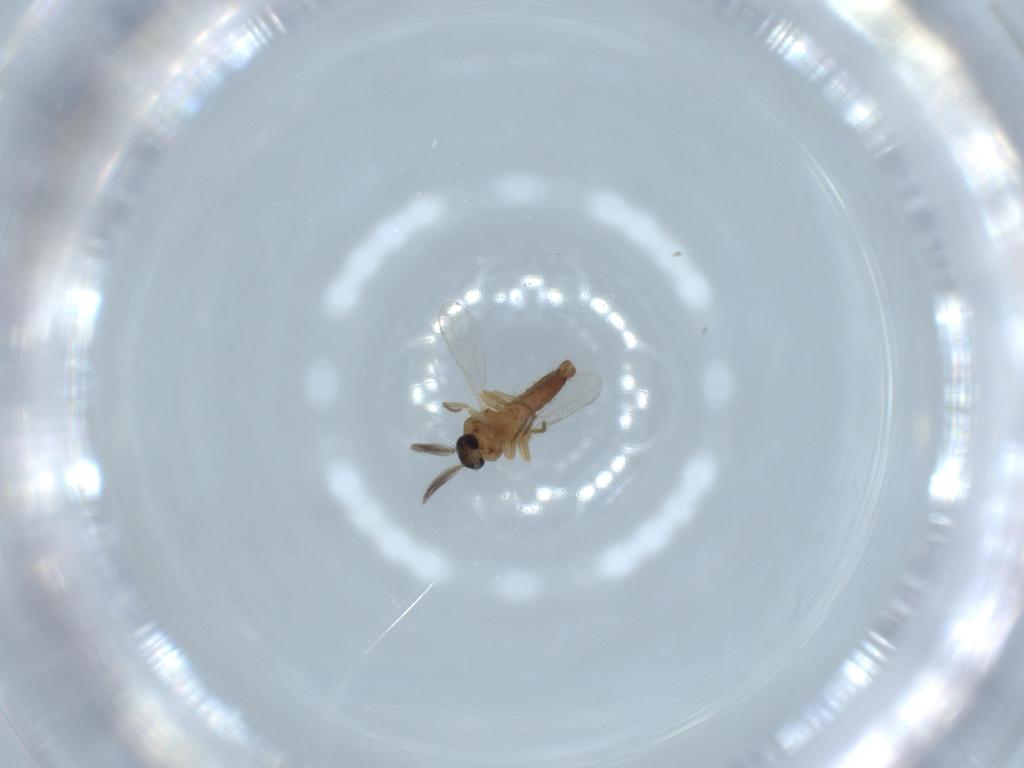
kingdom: Animalia
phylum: Arthropoda
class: Insecta
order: Diptera
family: Ceratopogonidae
